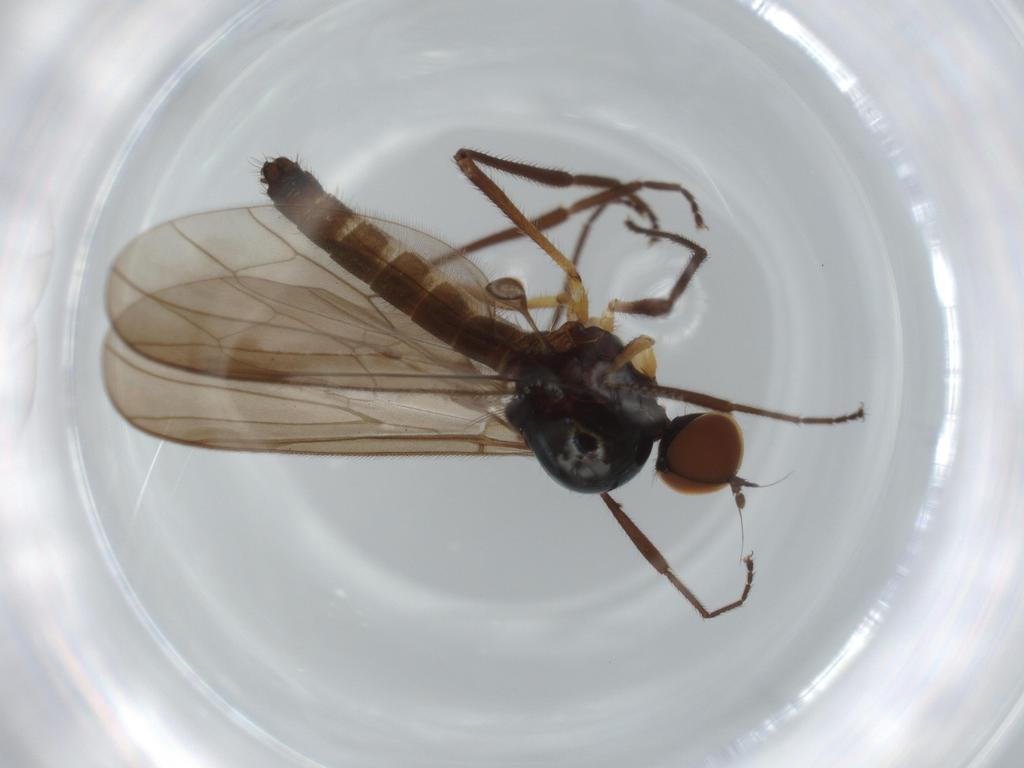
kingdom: Animalia
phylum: Arthropoda
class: Insecta
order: Diptera
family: Cecidomyiidae
